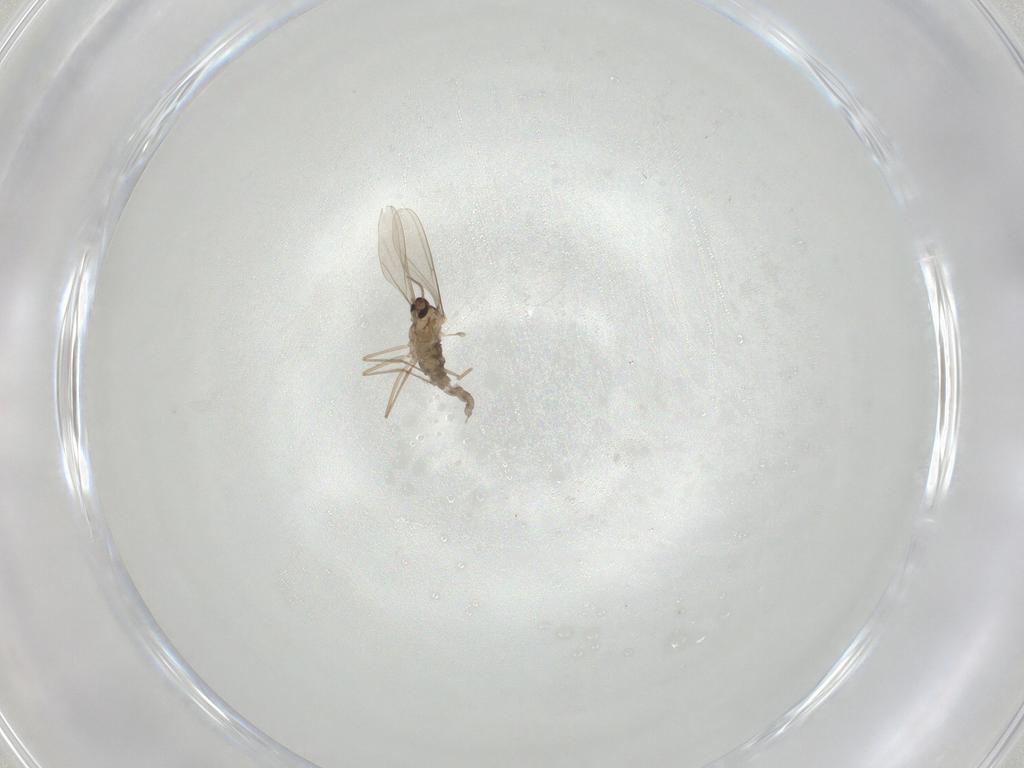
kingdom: Animalia
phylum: Arthropoda
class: Insecta
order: Diptera
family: Cecidomyiidae
